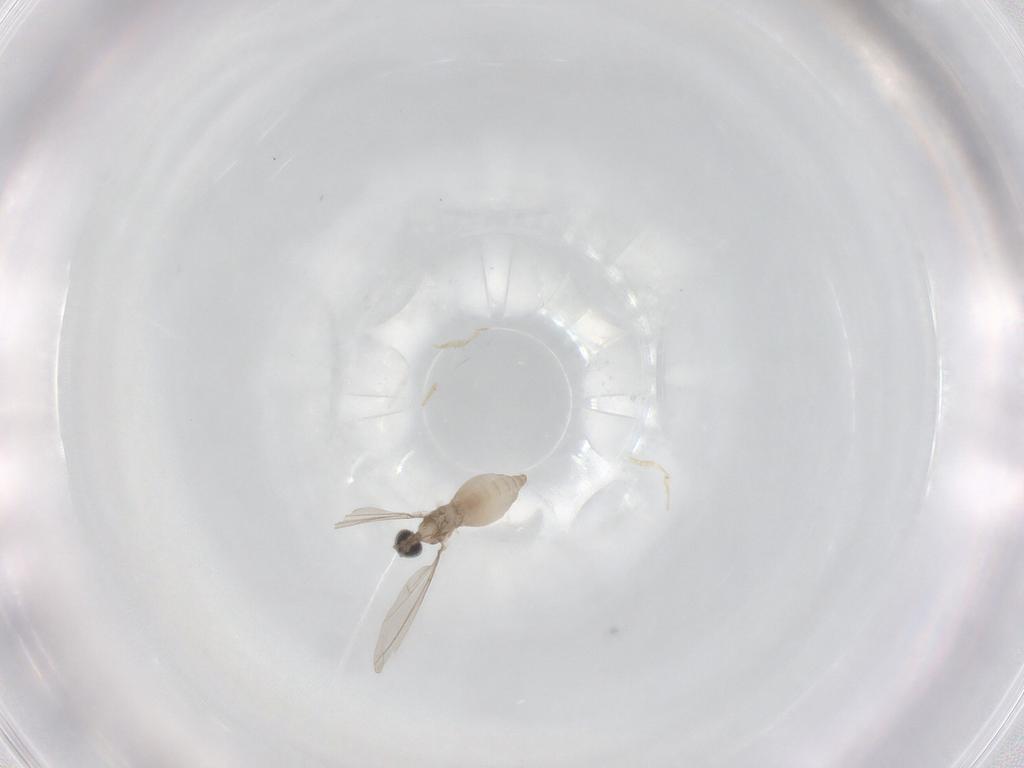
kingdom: Animalia
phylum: Arthropoda
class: Insecta
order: Diptera
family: Cecidomyiidae
